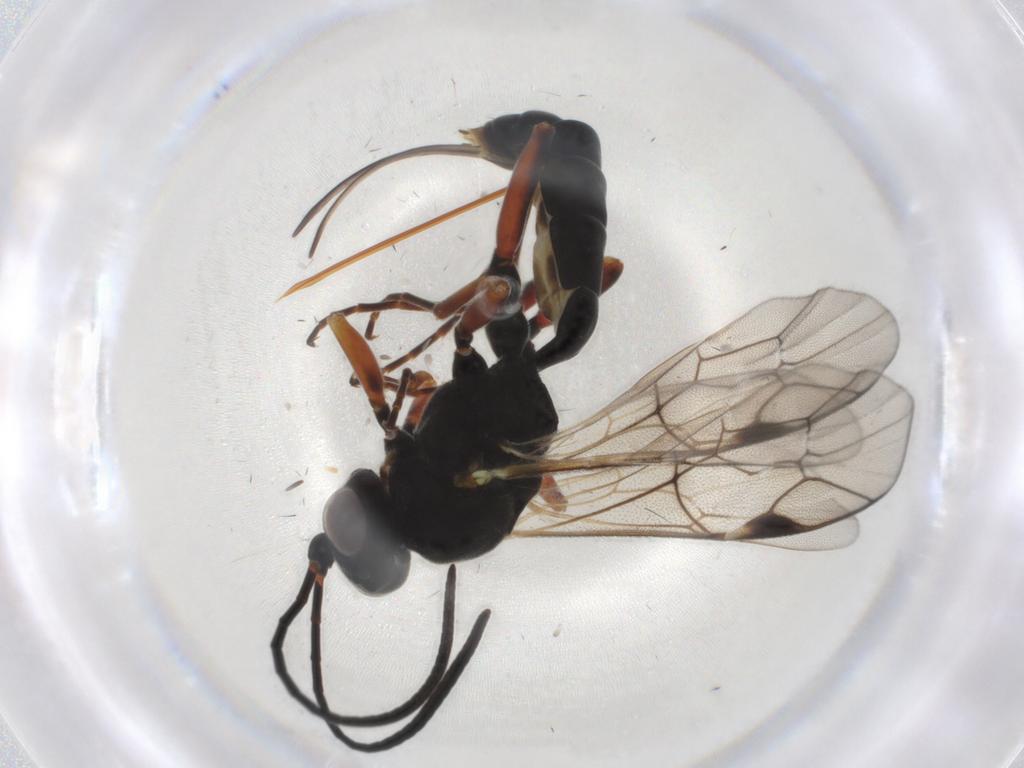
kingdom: Animalia
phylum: Arthropoda
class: Insecta
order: Hymenoptera
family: Ichneumonidae
